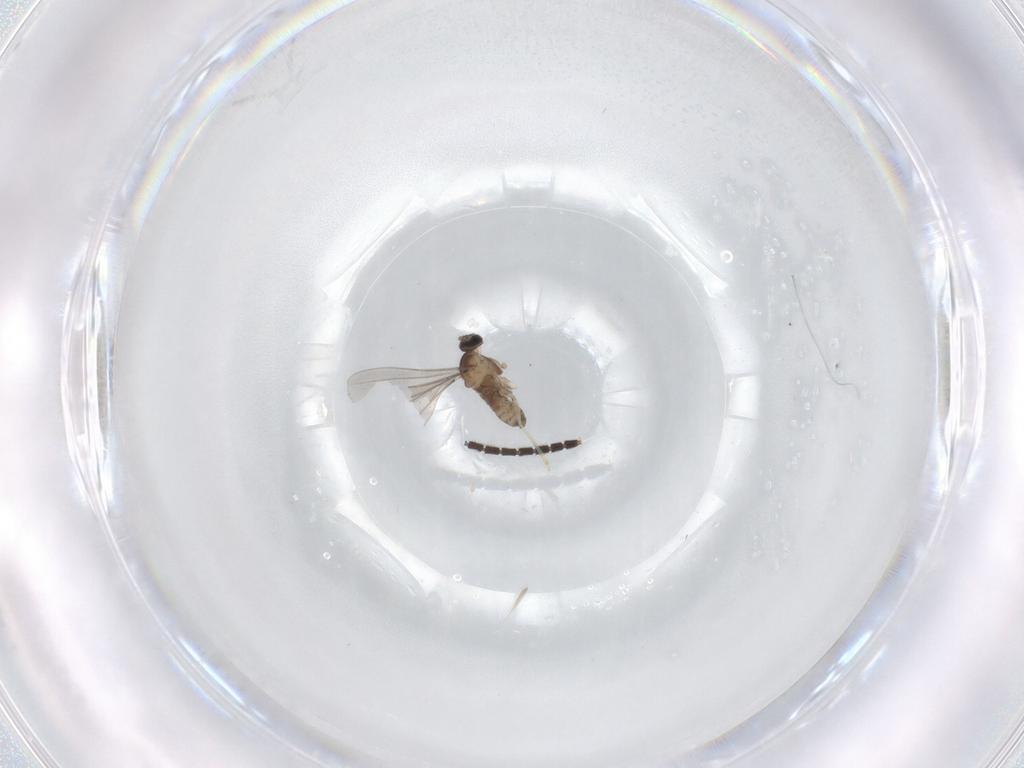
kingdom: Animalia
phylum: Arthropoda
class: Insecta
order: Diptera
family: Sciaridae
